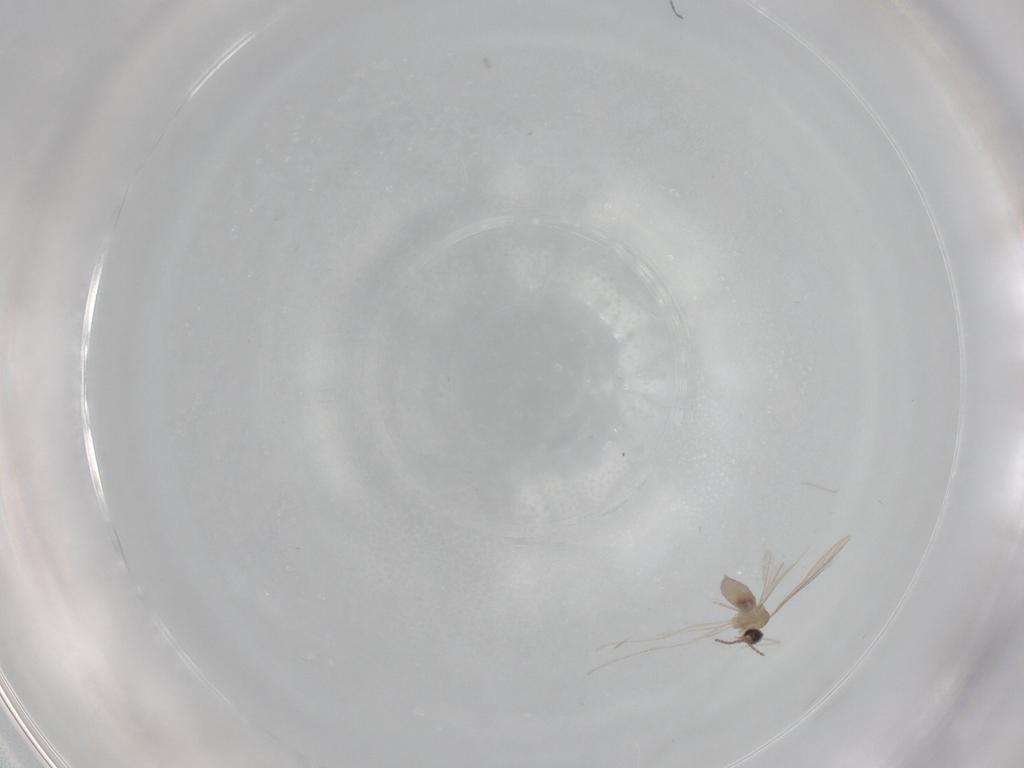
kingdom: Animalia
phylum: Arthropoda
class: Insecta
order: Diptera
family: Cecidomyiidae
